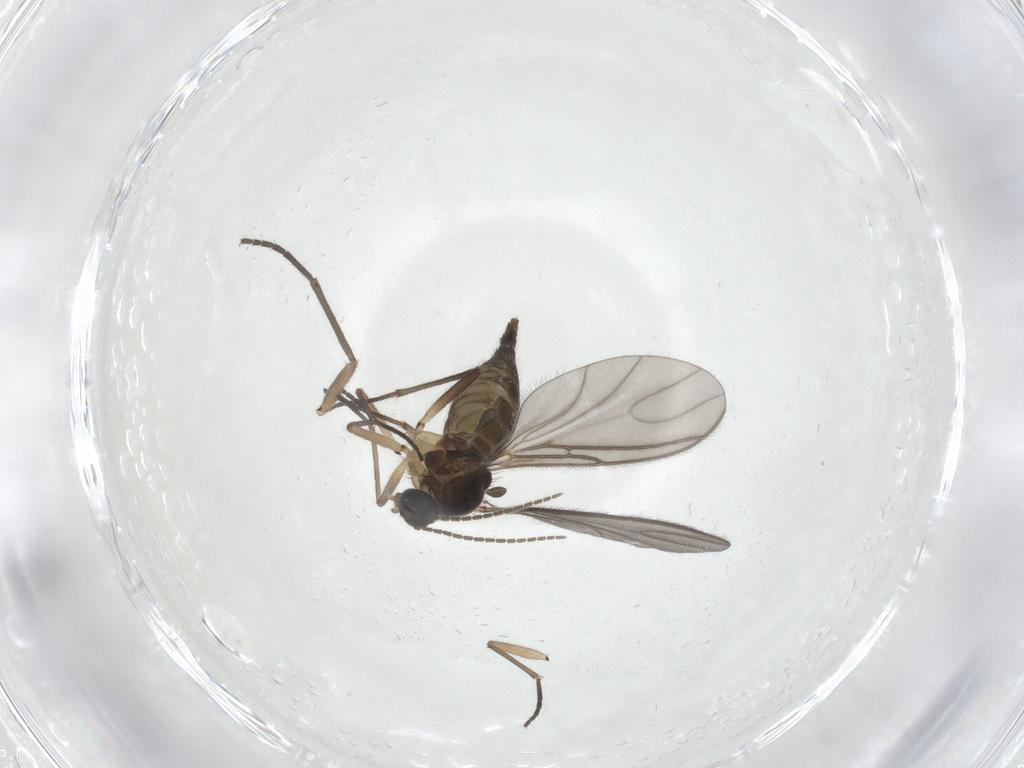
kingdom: Animalia
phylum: Arthropoda
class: Insecta
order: Diptera
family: Sciaridae
